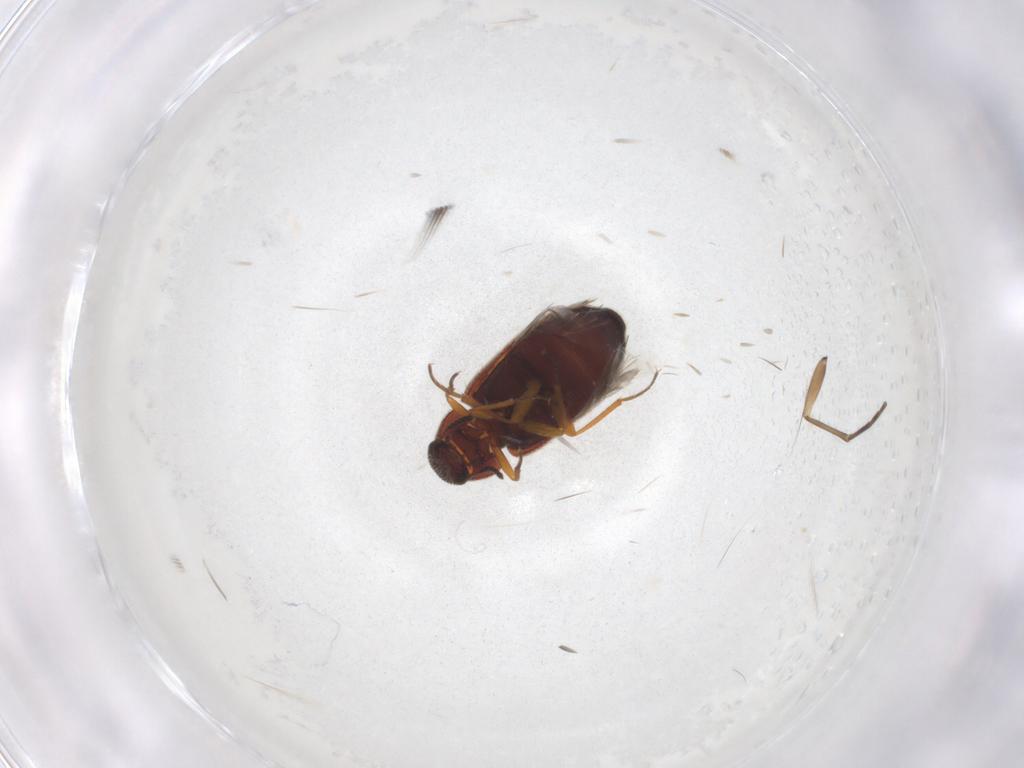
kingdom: Animalia
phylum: Arthropoda
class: Insecta
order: Coleoptera
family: Rhadalidae
